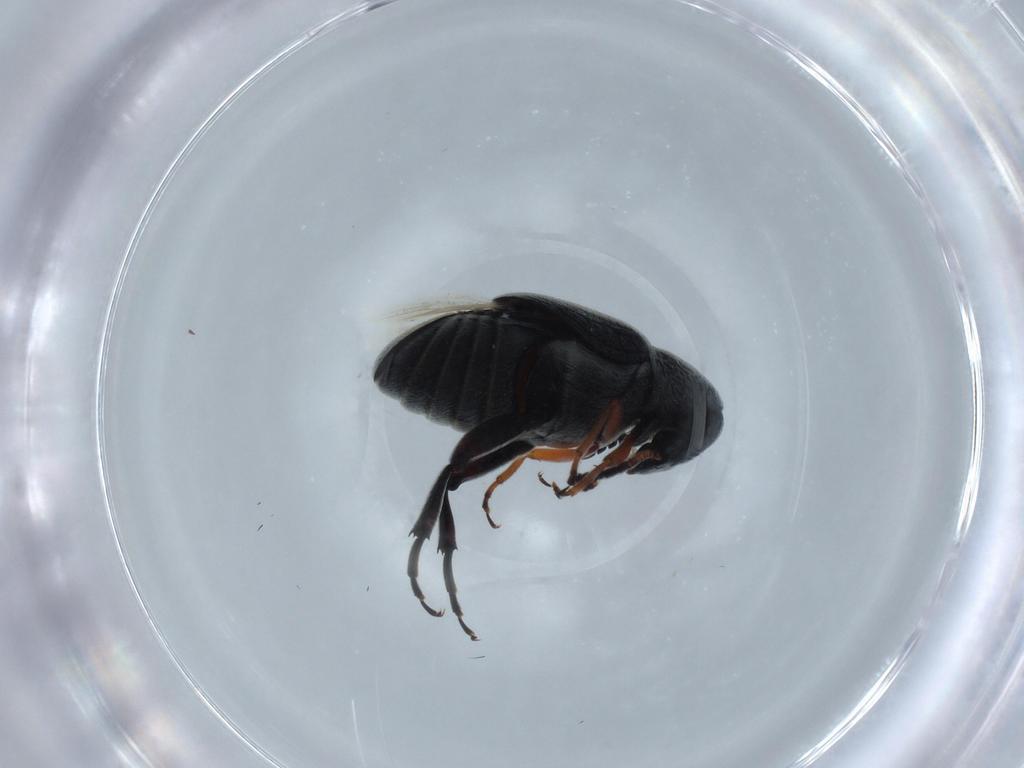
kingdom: Animalia
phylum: Arthropoda
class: Insecta
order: Coleoptera
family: Chrysomelidae
